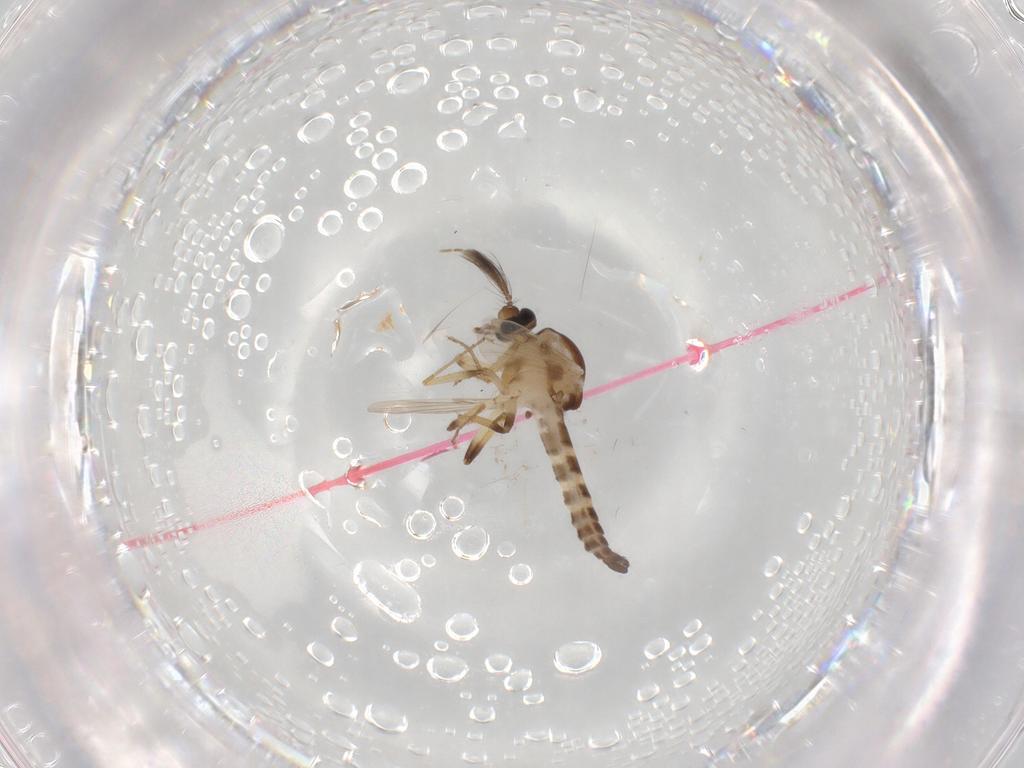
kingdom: Animalia
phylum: Arthropoda
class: Insecta
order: Diptera
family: Ceratopogonidae
